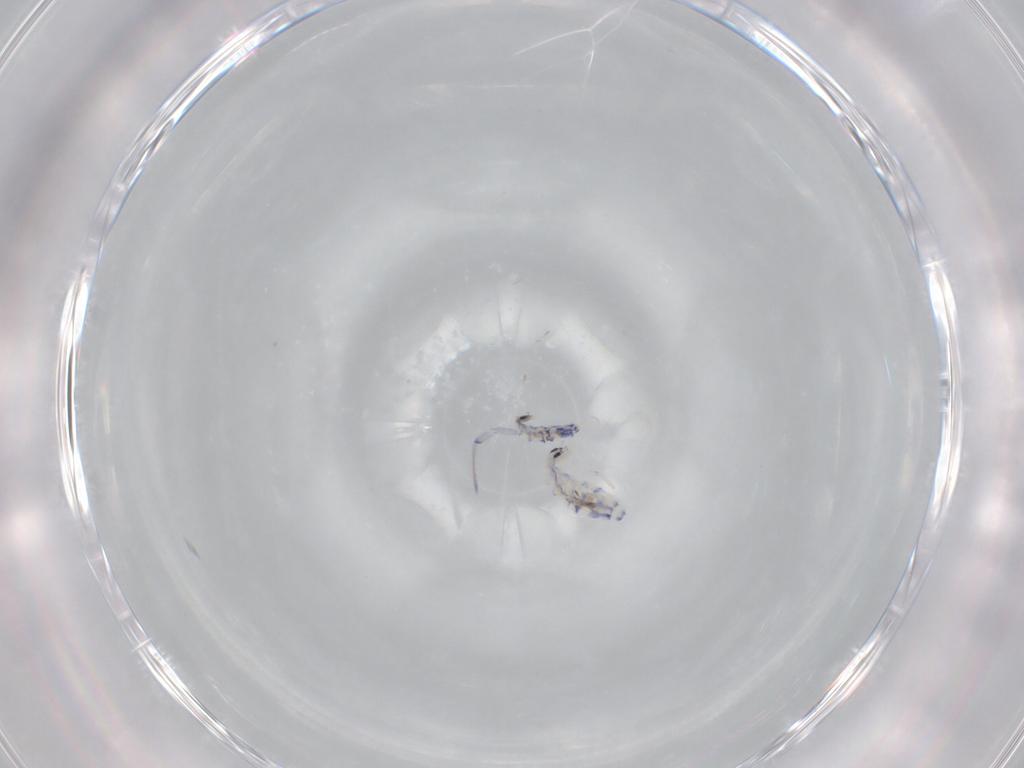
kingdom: Animalia
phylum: Arthropoda
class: Collembola
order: Entomobryomorpha
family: Entomobryidae
